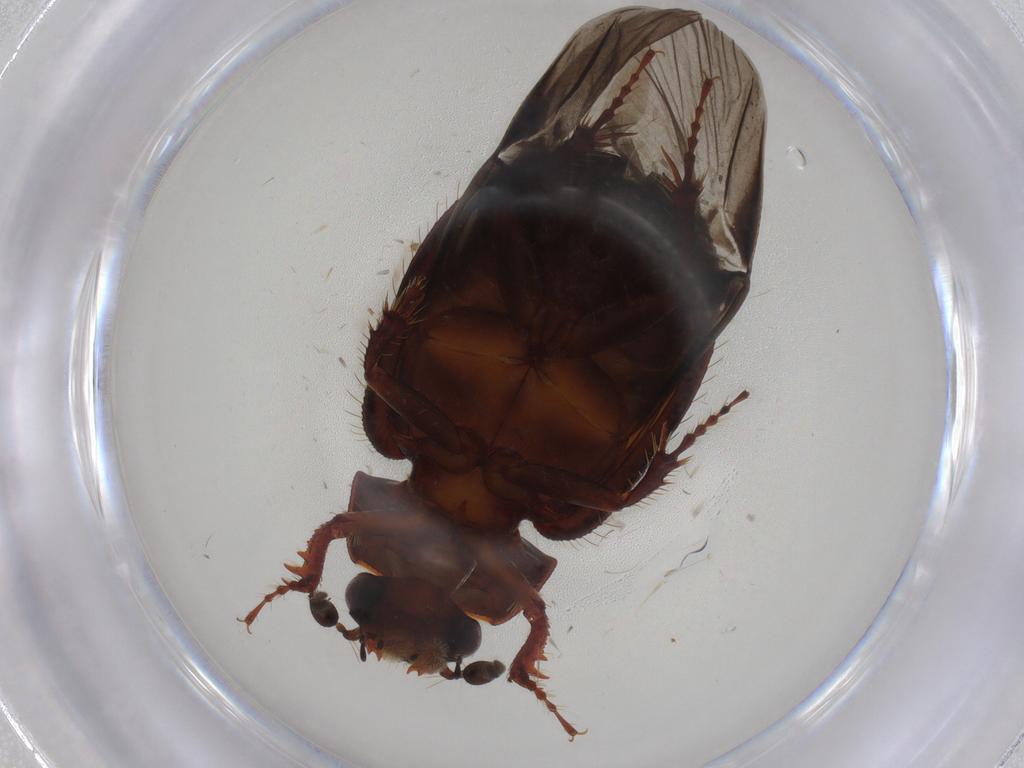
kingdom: Animalia
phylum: Arthropoda
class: Insecta
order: Coleoptera
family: Hybosoridae
